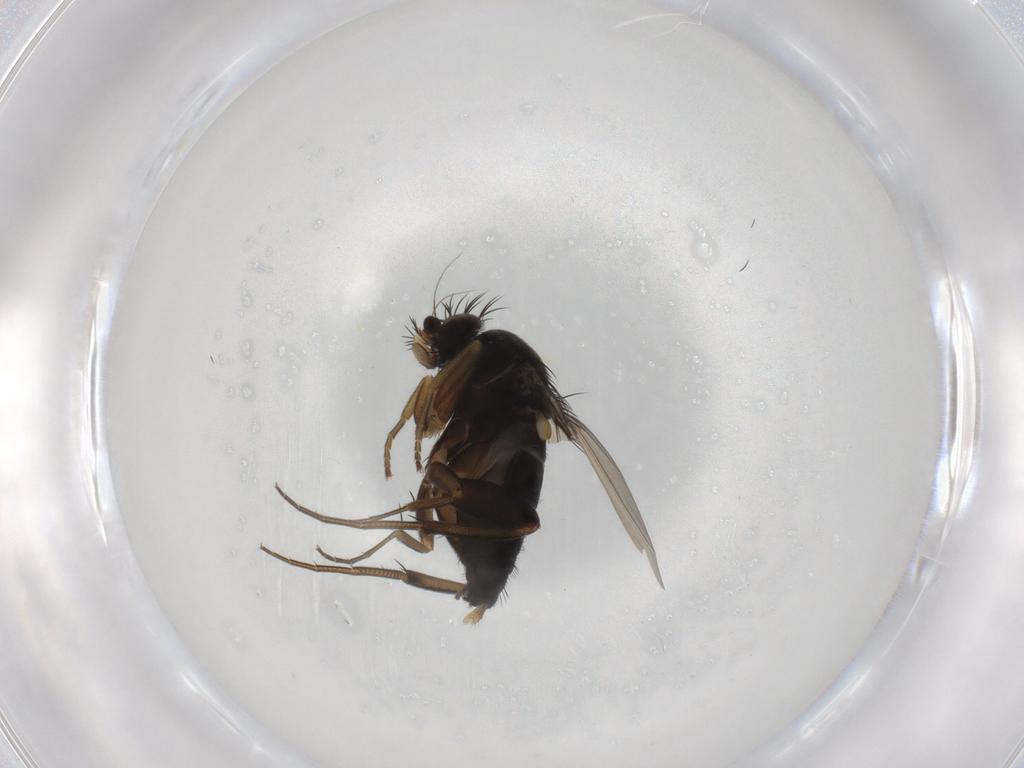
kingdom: Animalia
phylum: Arthropoda
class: Insecta
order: Diptera
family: Phoridae
